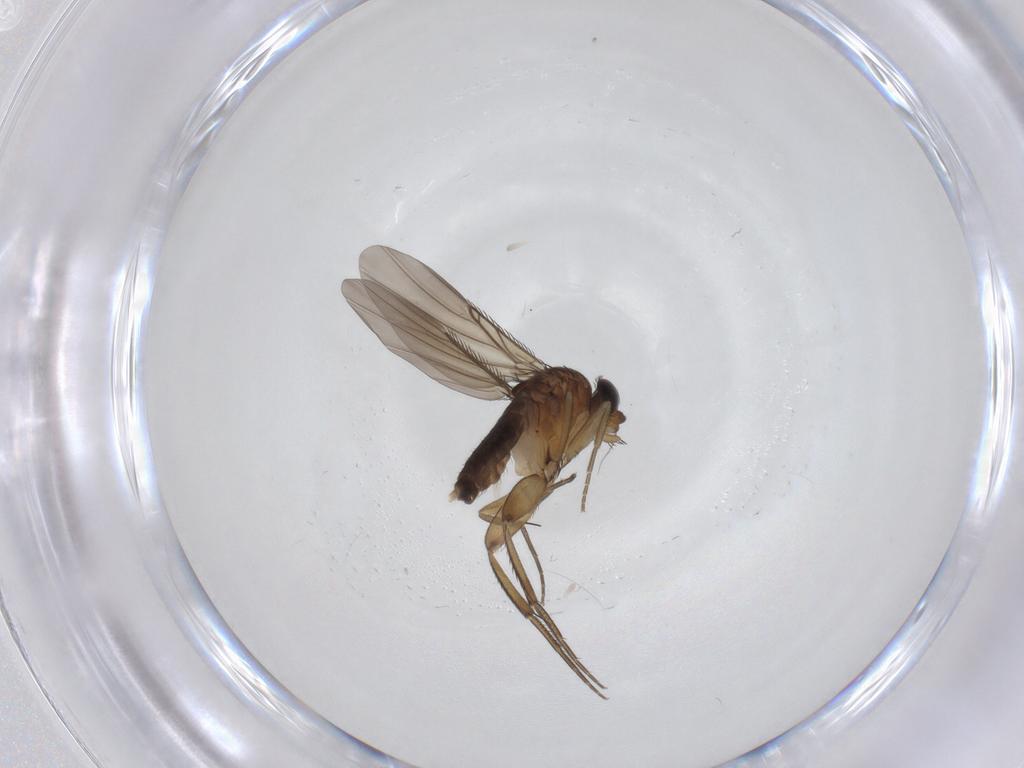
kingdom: Animalia
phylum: Arthropoda
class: Insecta
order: Diptera
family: Phoridae
